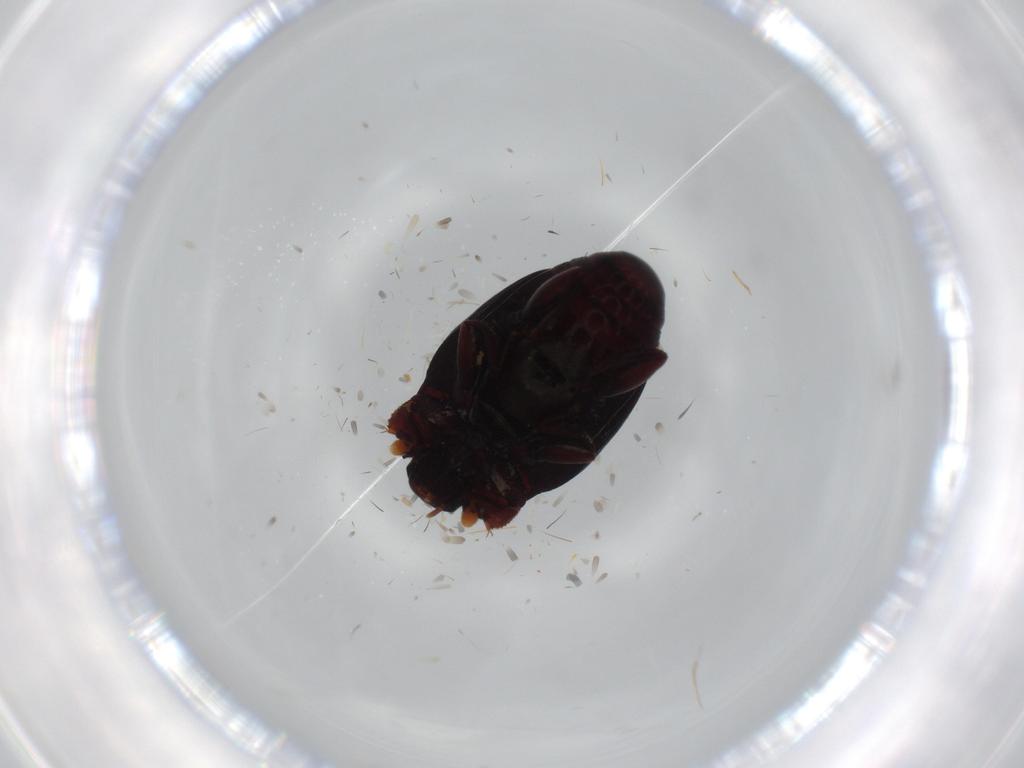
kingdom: Animalia
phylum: Arthropoda
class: Insecta
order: Coleoptera
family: Histeridae
